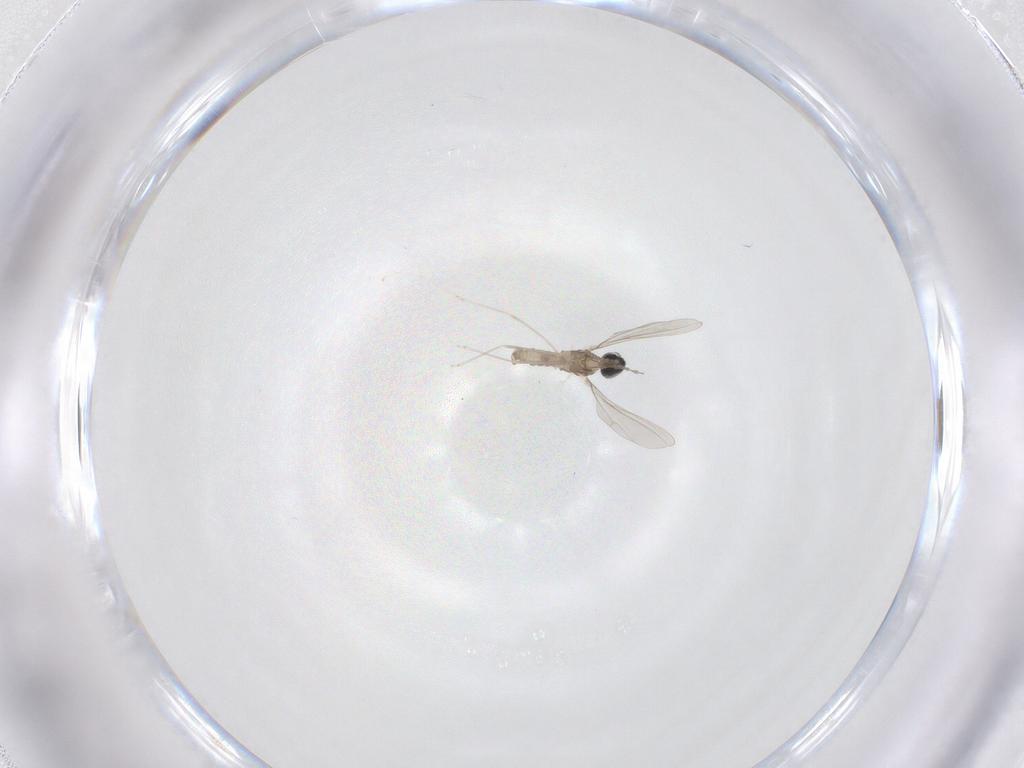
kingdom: Animalia
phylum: Arthropoda
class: Insecta
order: Diptera
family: Cecidomyiidae
